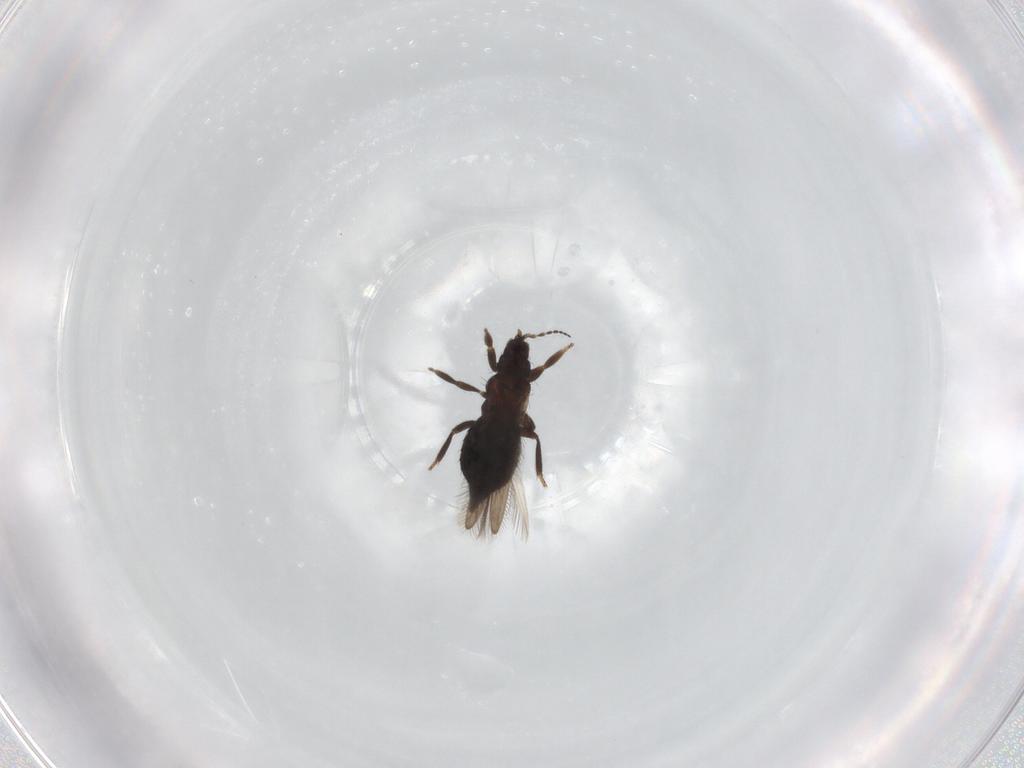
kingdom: Animalia
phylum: Arthropoda
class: Insecta
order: Thysanoptera
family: Melanthripidae
